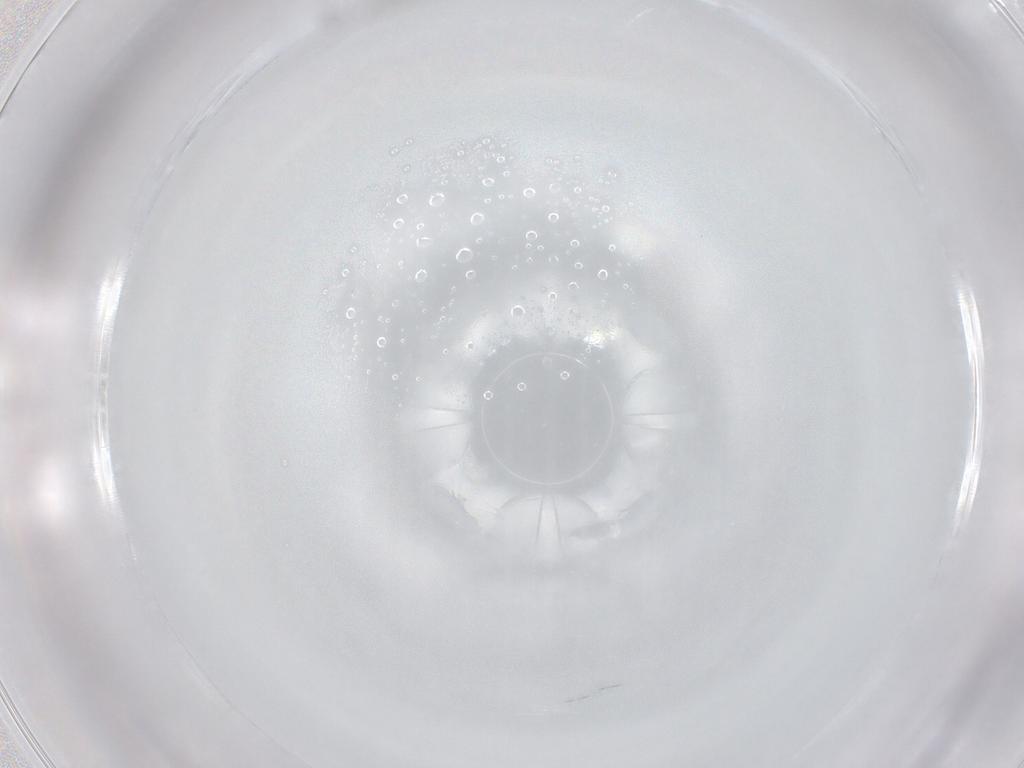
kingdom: Animalia
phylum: Arthropoda
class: Collembola
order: Entomobryomorpha
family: Entomobryidae
